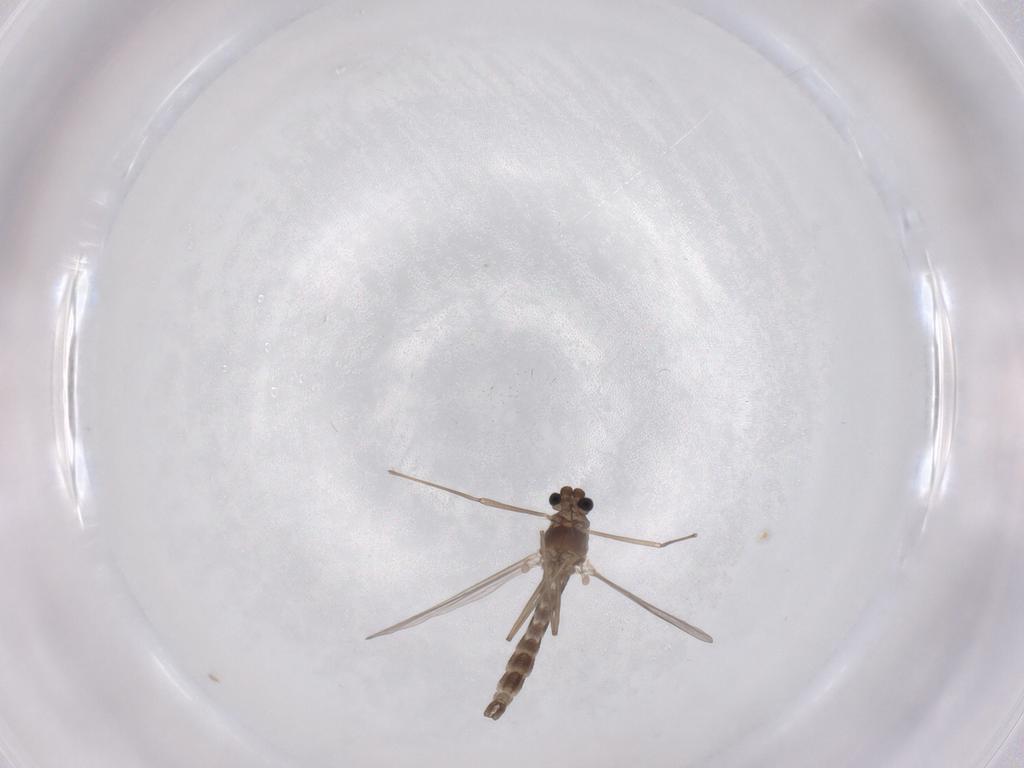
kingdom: Animalia
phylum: Arthropoda
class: Insecta
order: Diptera
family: Chironomidae
